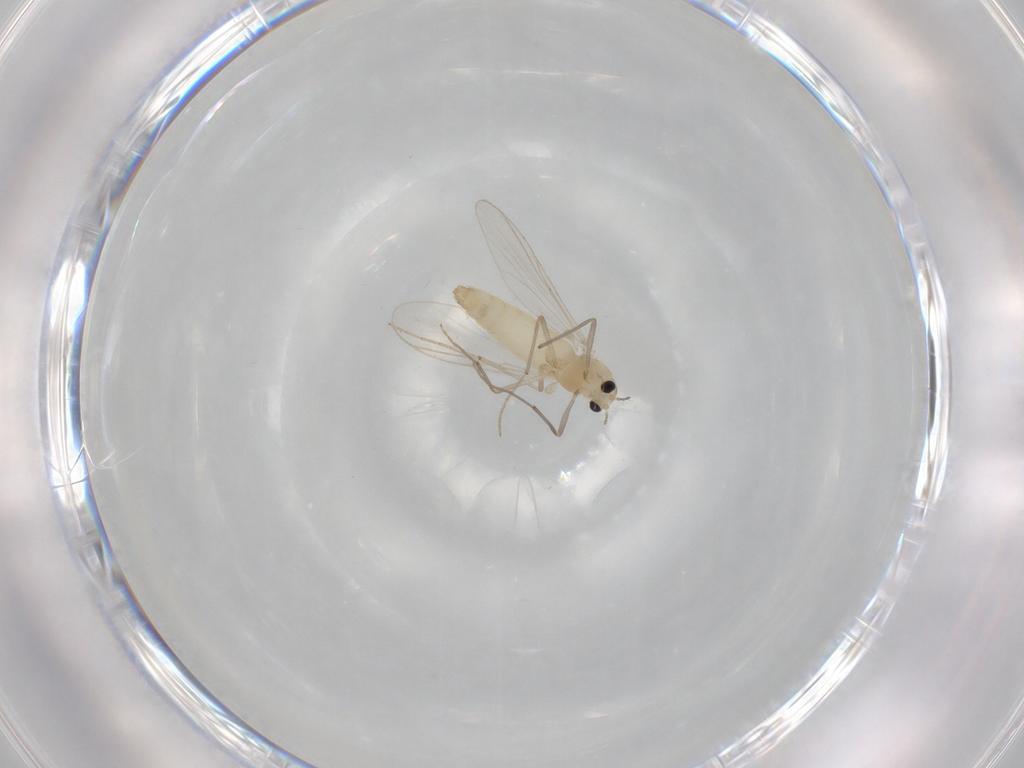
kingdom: Animalia
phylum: Arthropoda
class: Insecta
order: Diptera
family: Chironomidae
